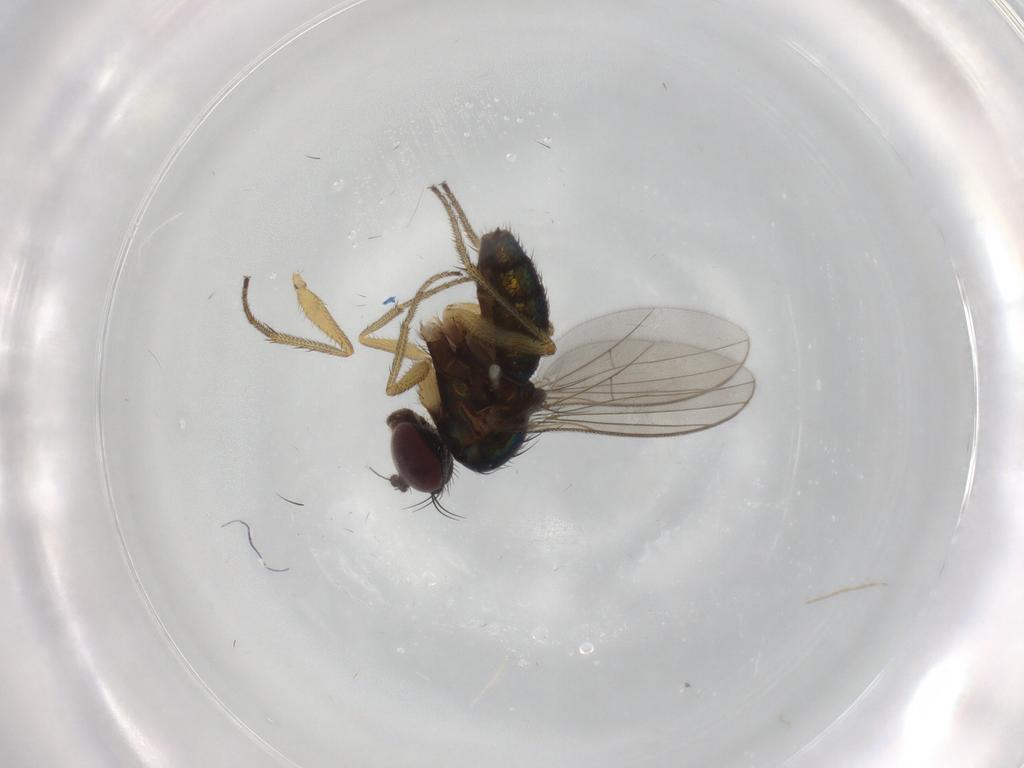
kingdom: Animalia
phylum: Arthropoda
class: Insecta
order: Diptera
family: Dolichopodidae
